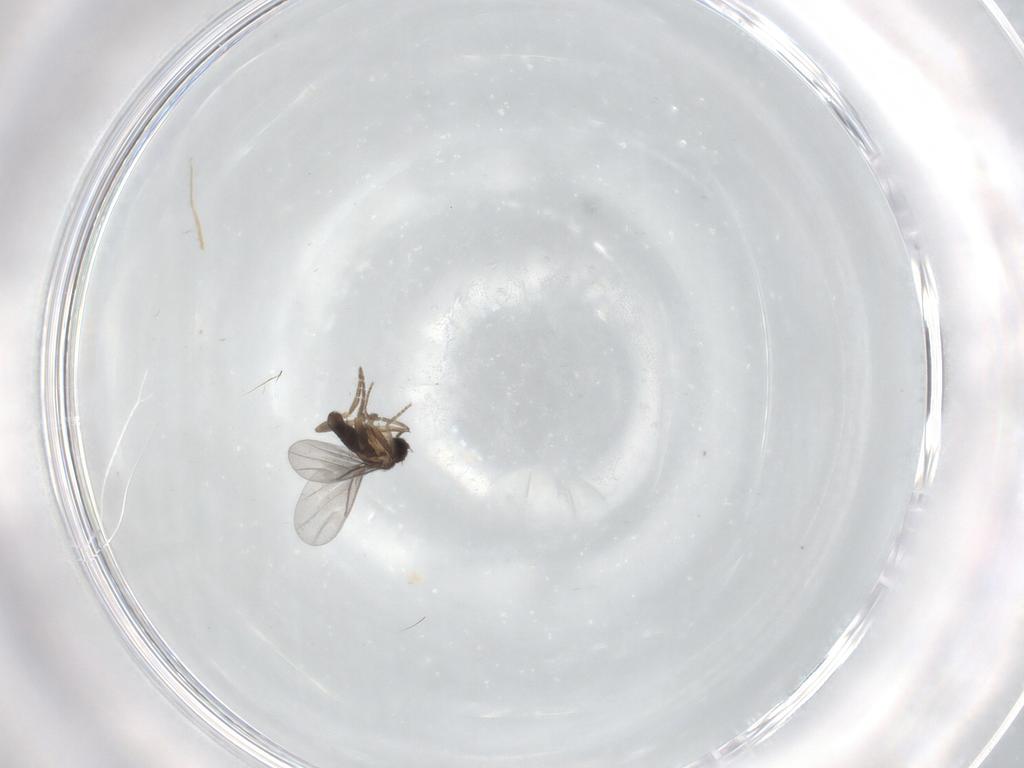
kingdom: Animalia
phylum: Arthropoda
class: Insecta
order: Diptera
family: Cecidomyiidae
